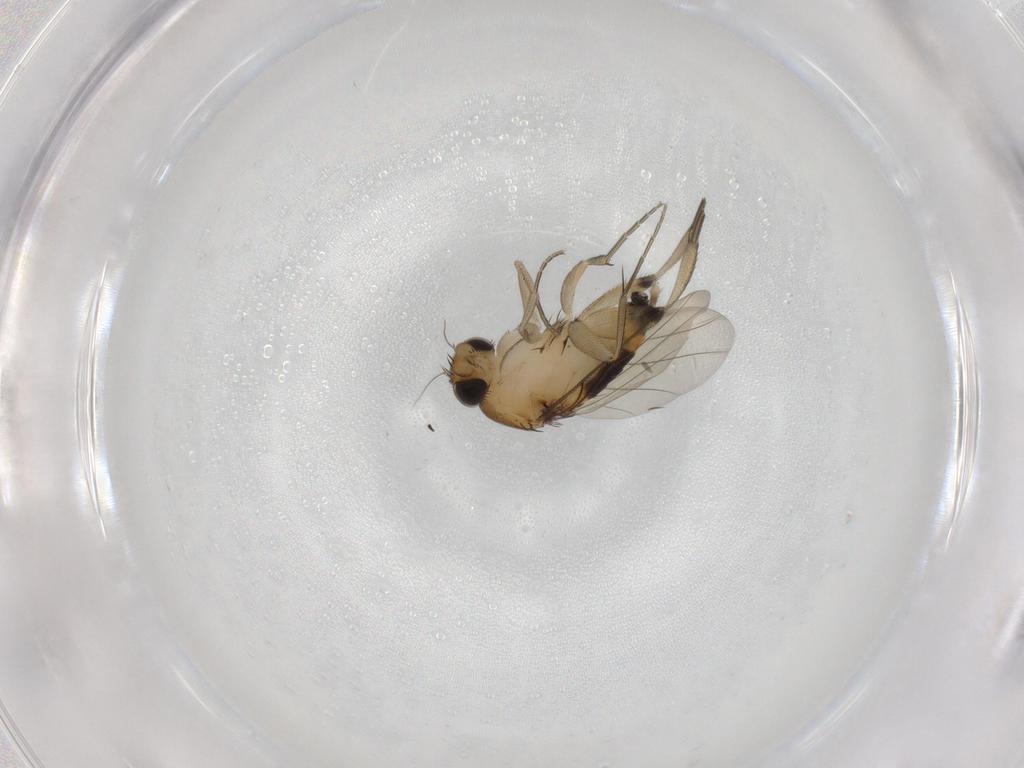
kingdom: Animalia
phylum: Arthropoda
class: Insecta
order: Diptera
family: Phoridae
